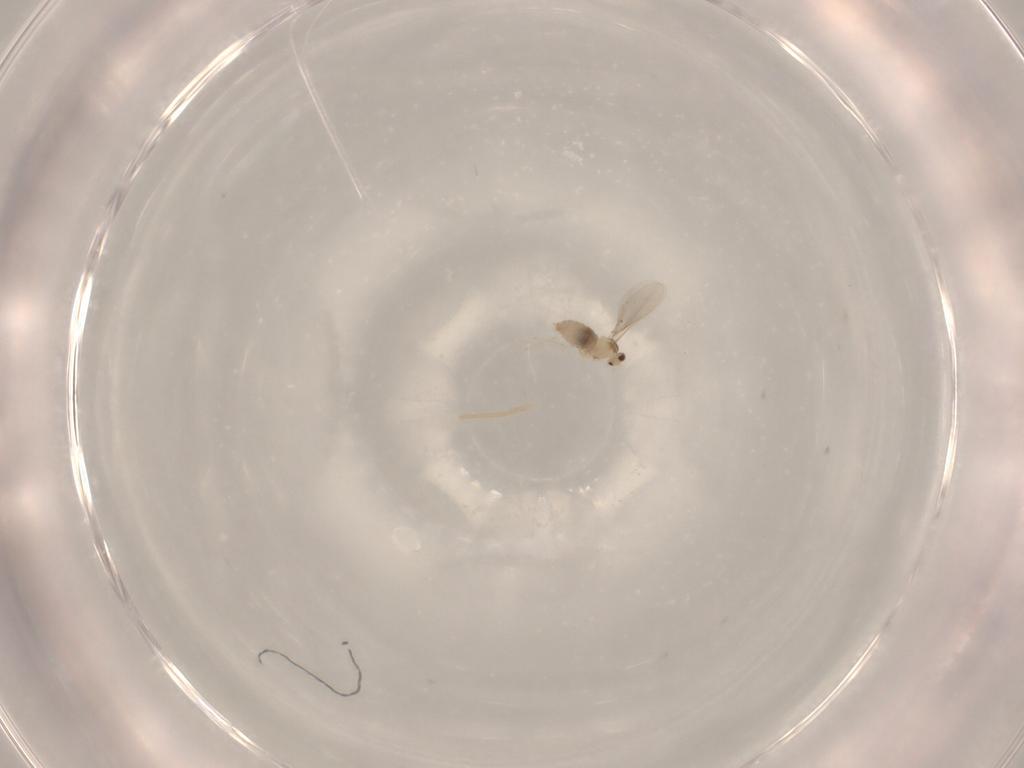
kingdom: Animalia
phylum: Arthropoda
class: Insecta
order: Diptera
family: Cecidomyiidae
